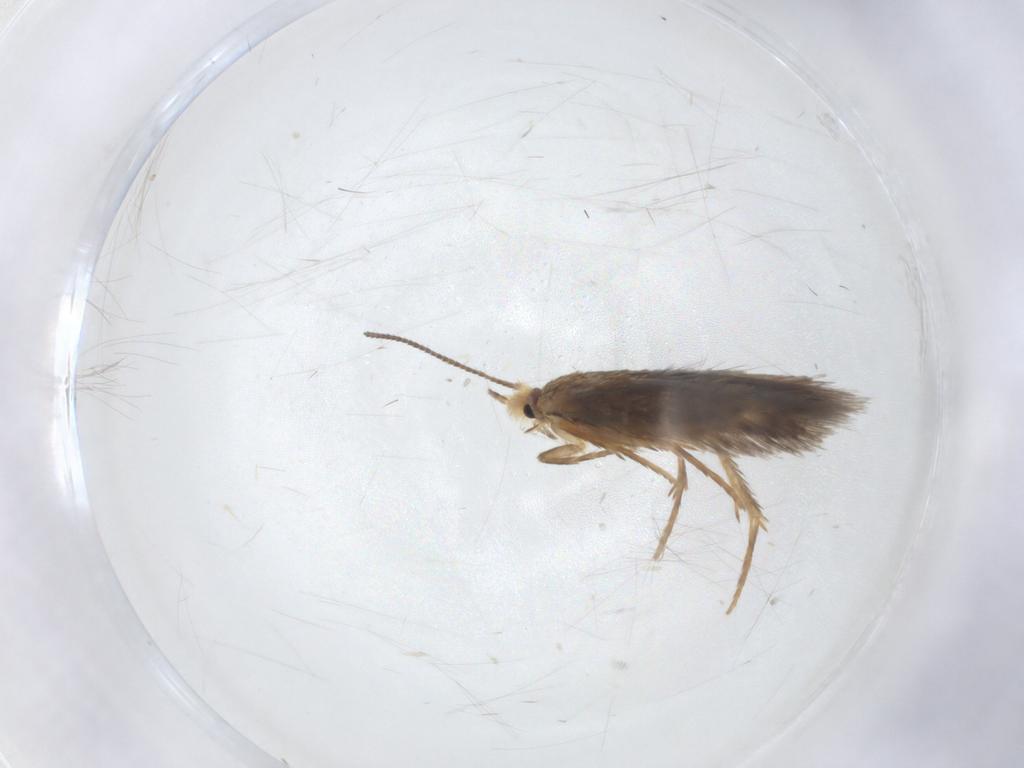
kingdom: Animalia
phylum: Arthropoda
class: Insecta
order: Lepidoptera
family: Nepticulidae
